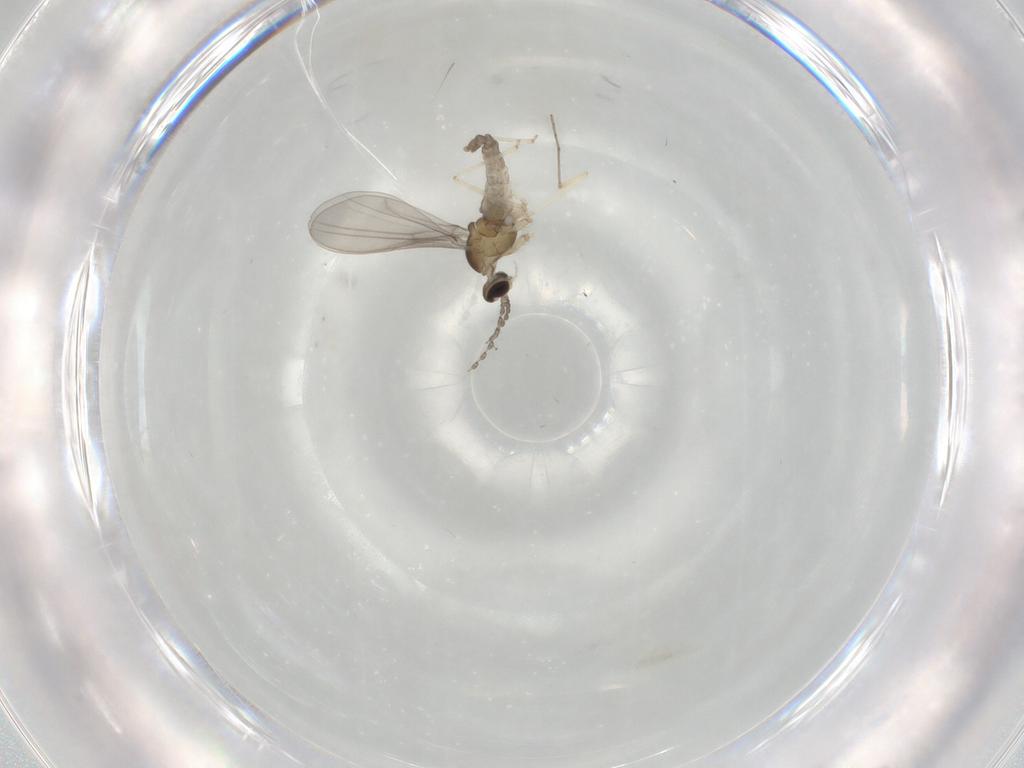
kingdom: Animalia
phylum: Arthropoda
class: Insecta
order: Diptera
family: Cecidomyiidae
